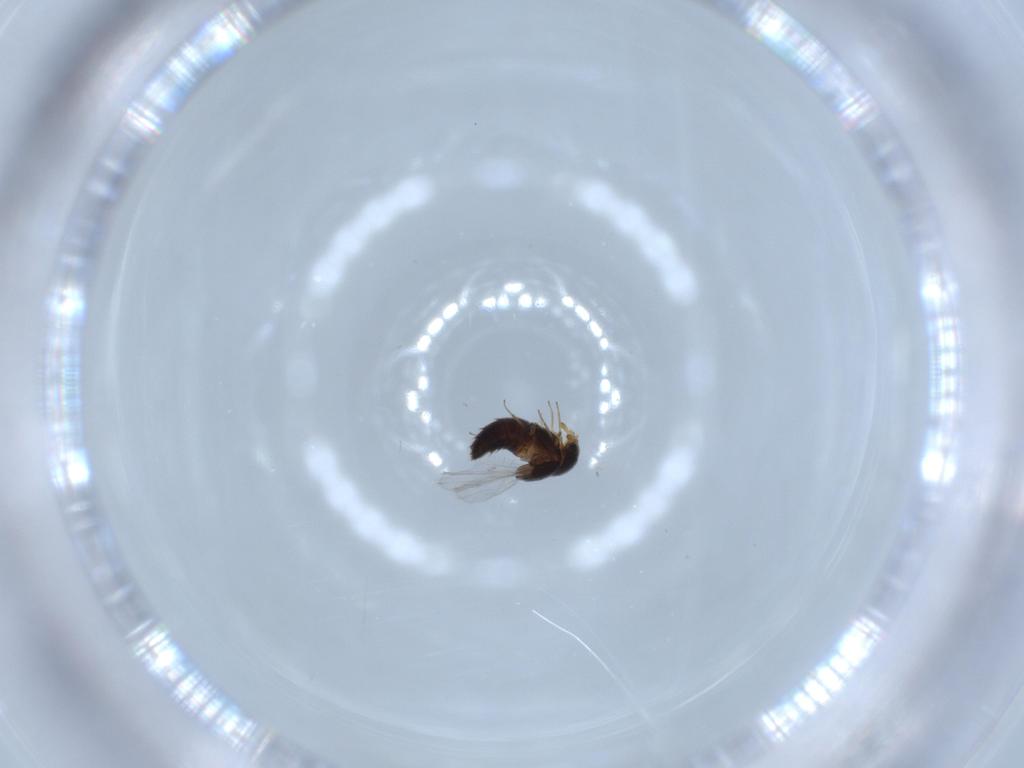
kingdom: Animalia
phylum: Arthropoda
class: Insecta
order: Coleoptera
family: Staphylinidae
